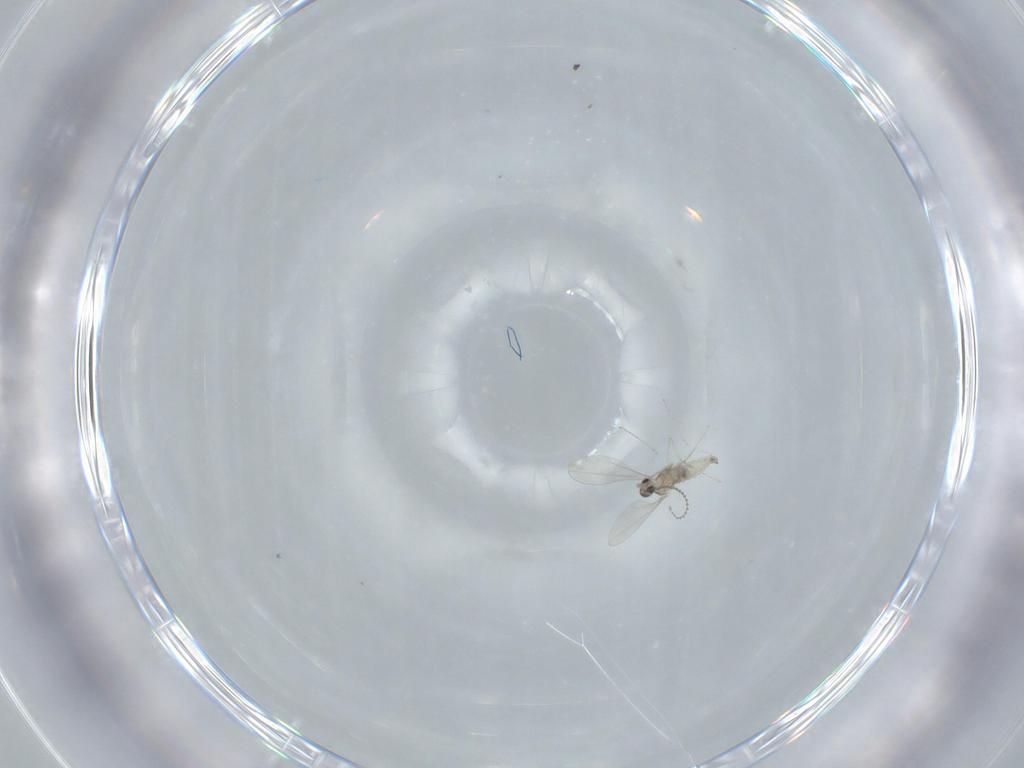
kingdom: Animalia
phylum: Arthropoda
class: Insecta
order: Diptera
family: Cecidomyiidae
